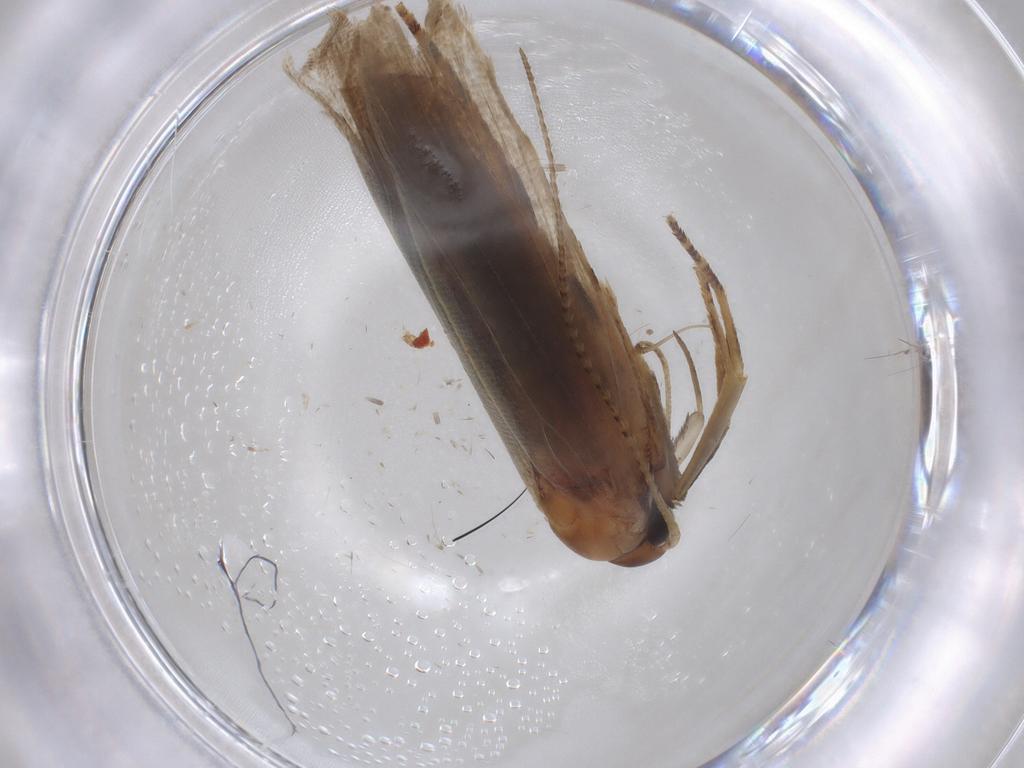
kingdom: Animalia
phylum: Arthropoda
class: Insecta
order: Lepidoptera
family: Gelechiidae
